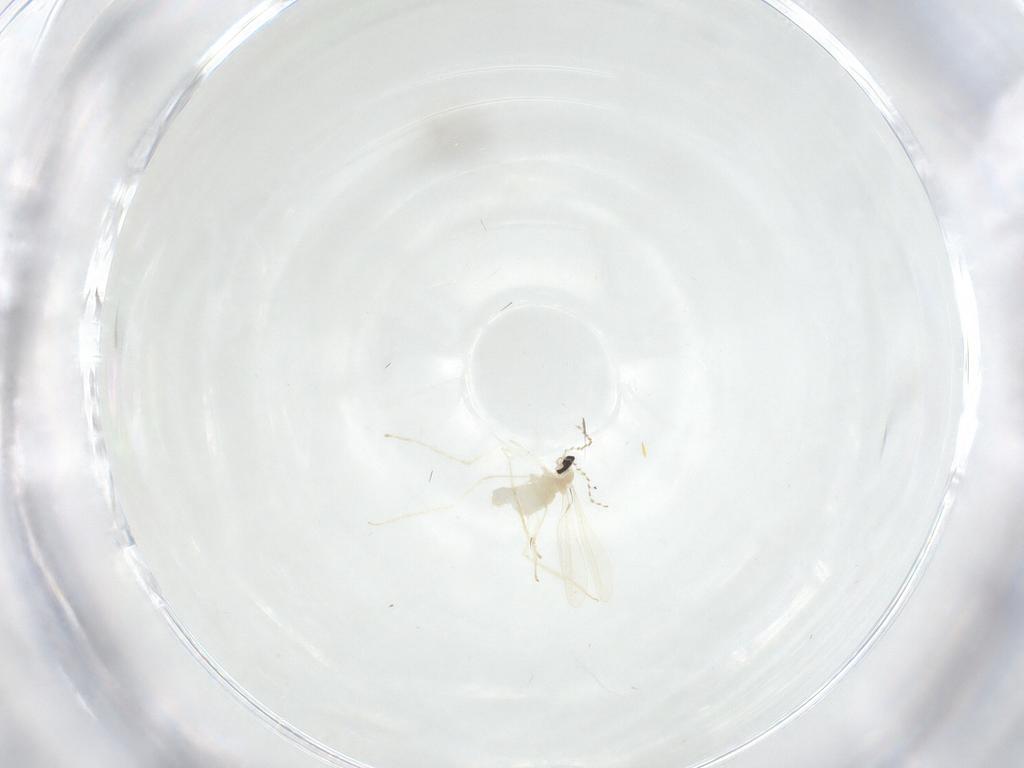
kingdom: Animalia
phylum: Arthropoda
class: Insecta
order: Diptera
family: Cecidomyiidae
